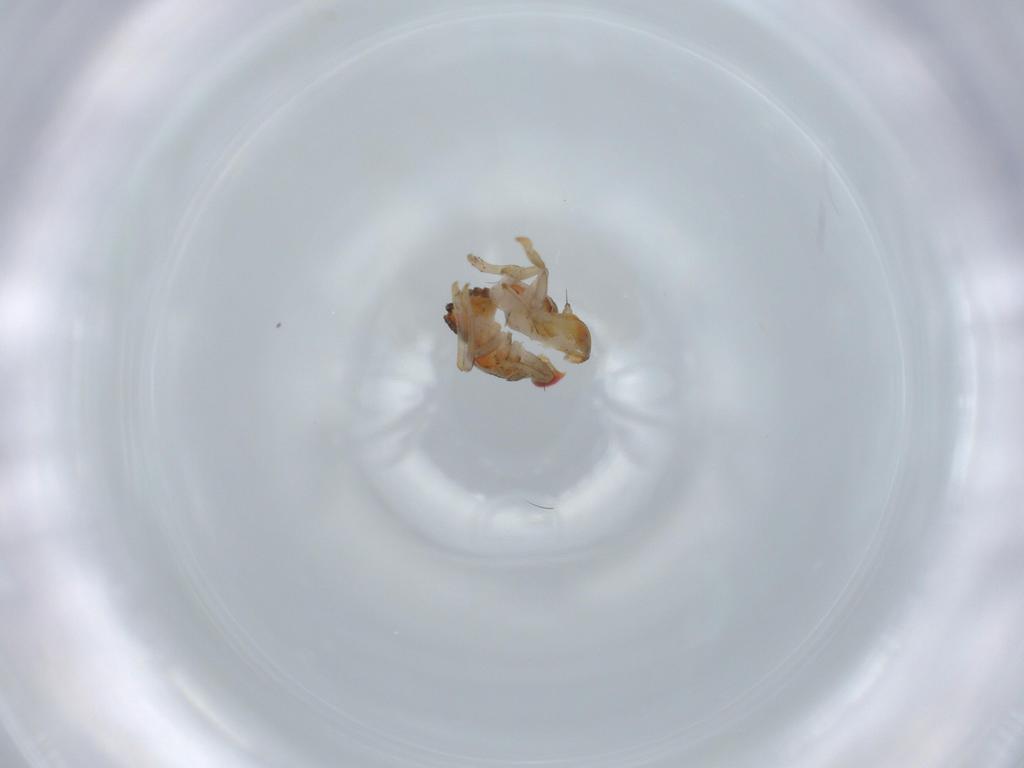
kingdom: Animalia
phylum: Arthropoda
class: Insecta
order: Hemiptera
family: Issidae
